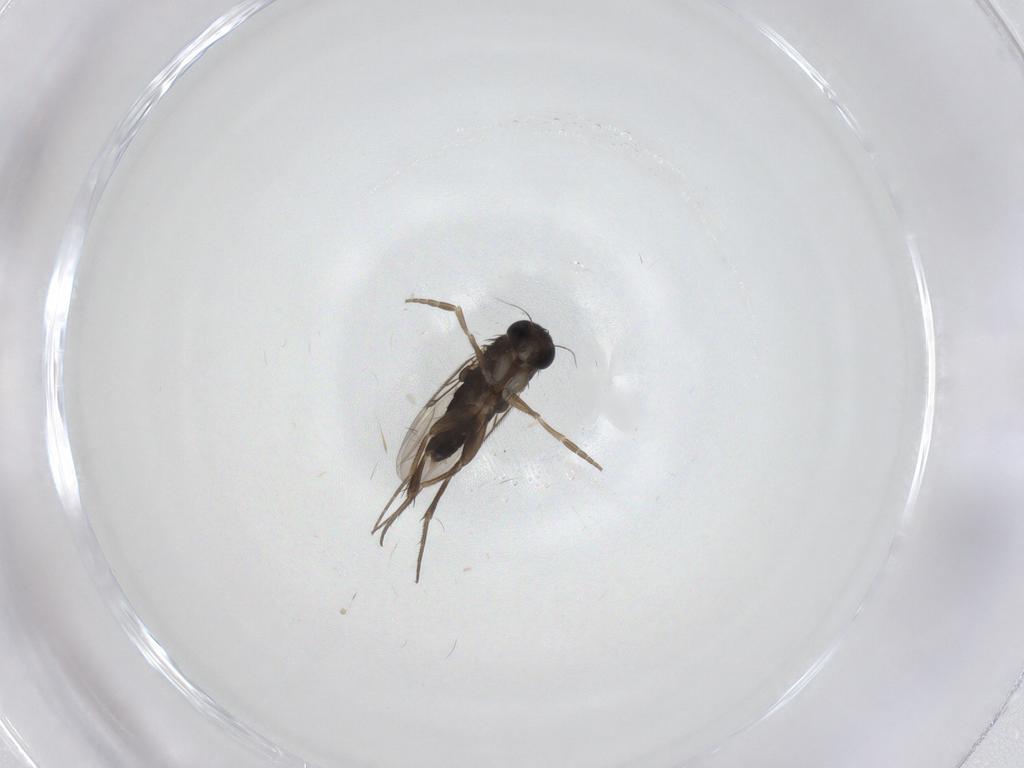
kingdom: Animalia
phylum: Arthropoda
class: Insecta
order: Diptera
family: Phoridae
